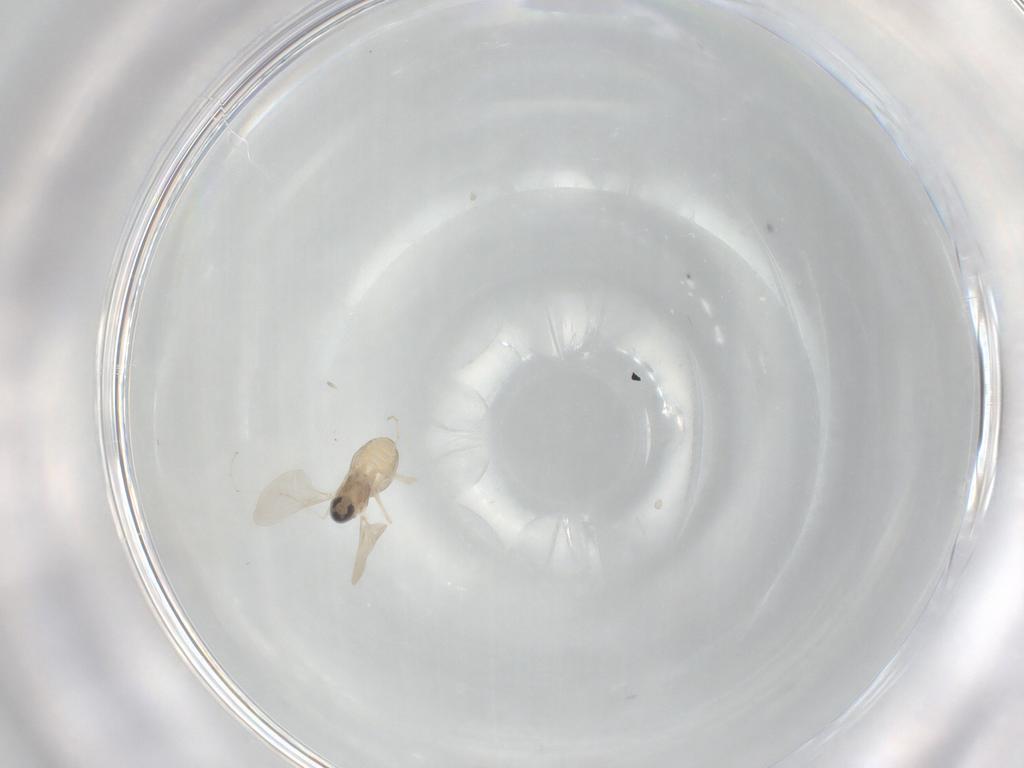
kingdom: Animalia
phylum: Arthropoda
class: Insecta
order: Diptera
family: Cecidomyiidae
